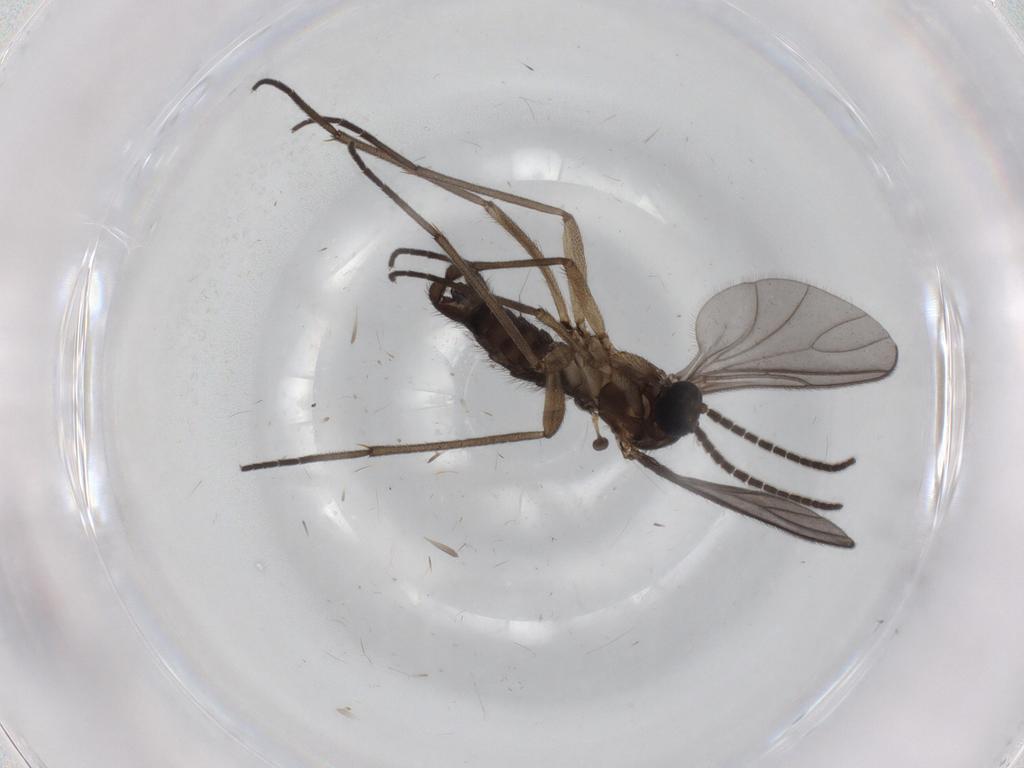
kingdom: Animalia
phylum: Arthropoda
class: Insecta
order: Diptera
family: Sciaridae
